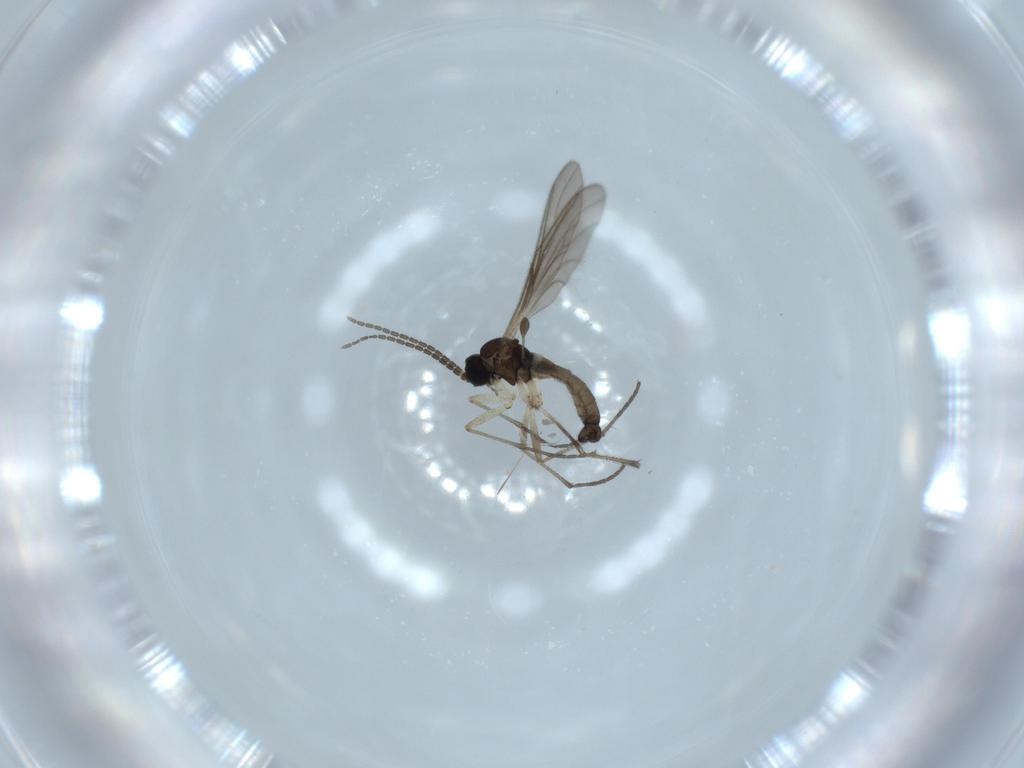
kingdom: Animalia
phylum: Arthropoda
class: Insecta
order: Diptera
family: Sciaridae
